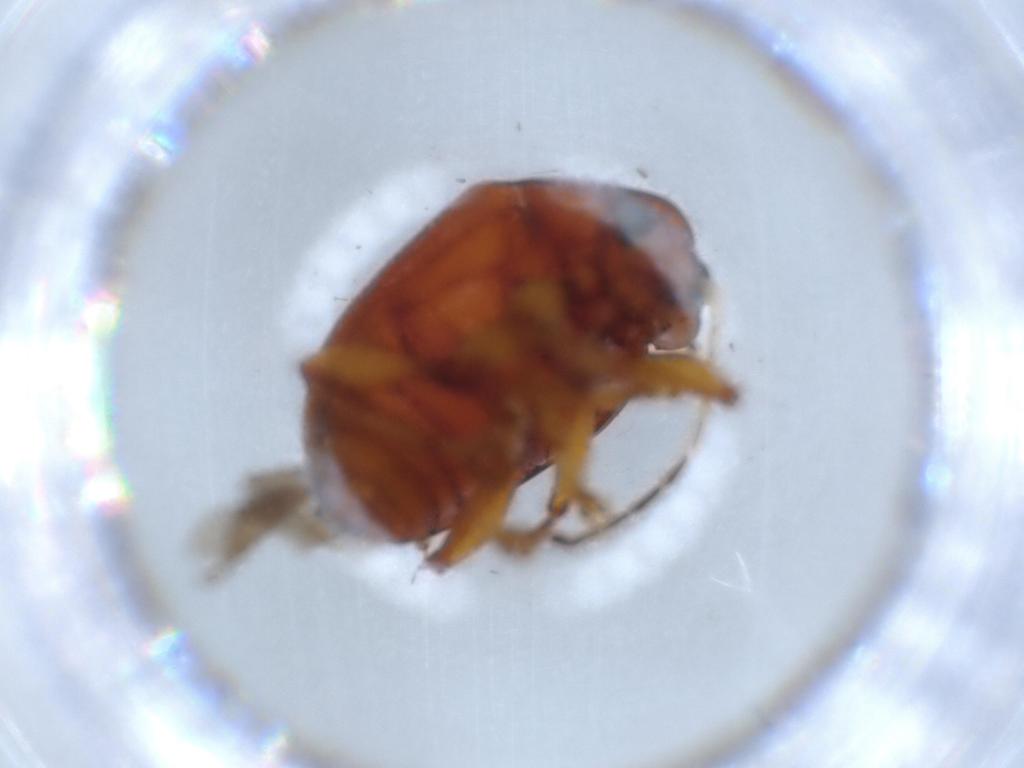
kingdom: Animalia
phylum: Arthropoda
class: Insecta
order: Coleoptera
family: Chrysomelidae
